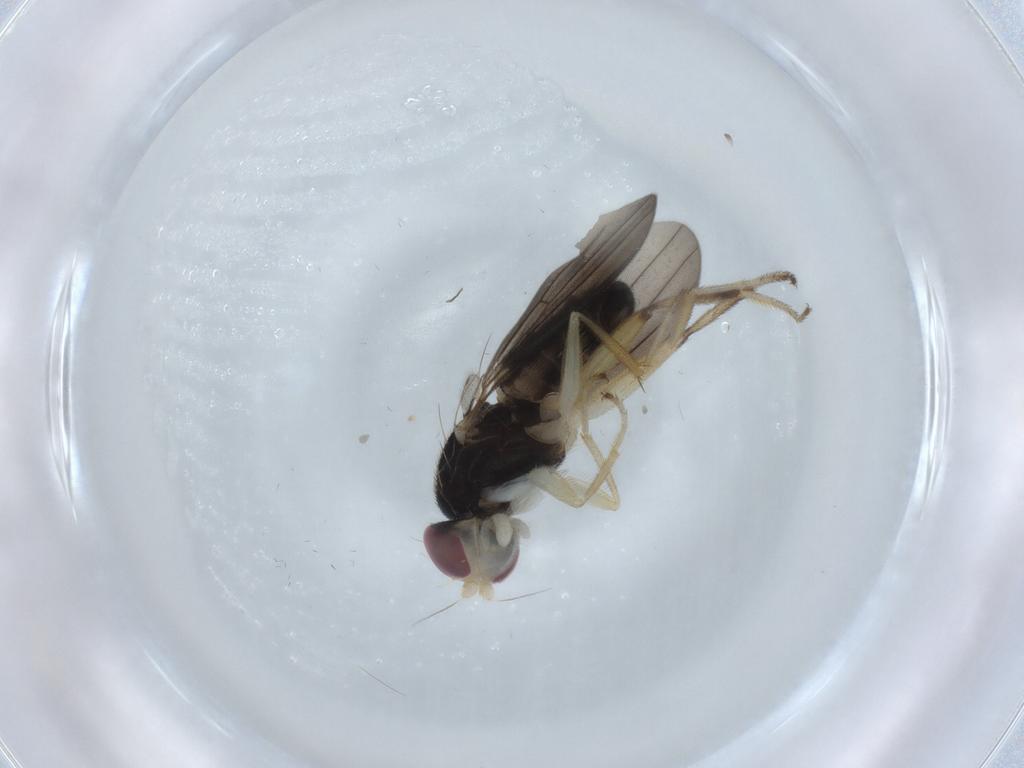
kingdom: Animalia
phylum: Arthropoda
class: Insecta
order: Diptera
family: Clusiidae
